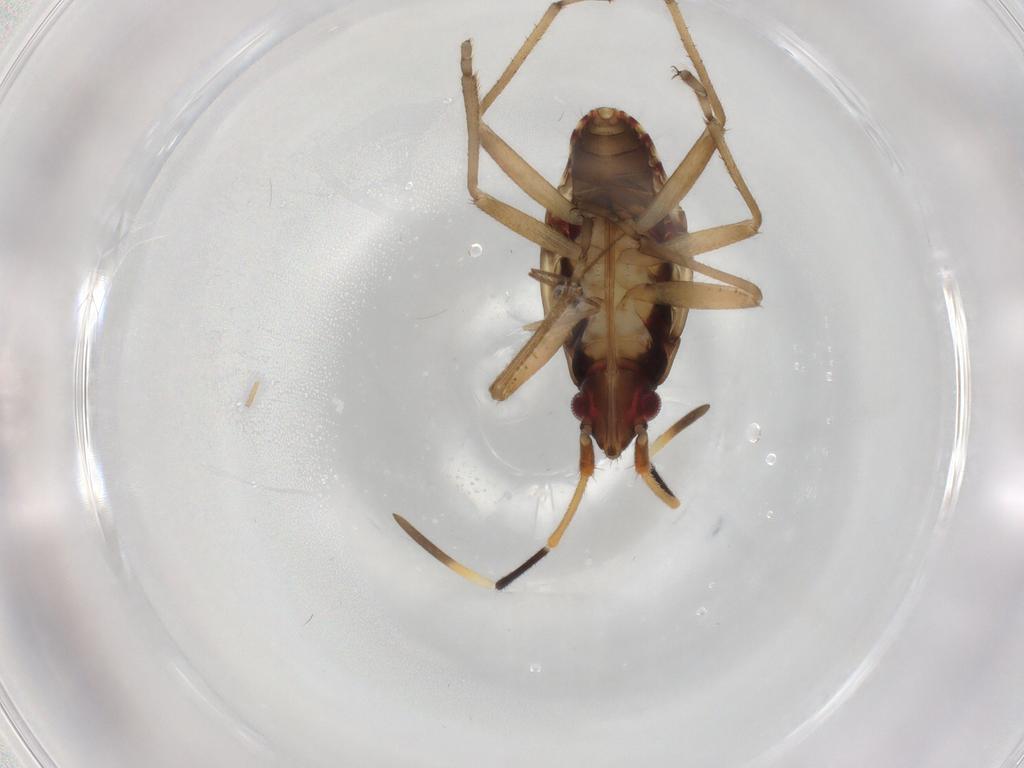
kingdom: Animalia
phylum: Arthropoda
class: Insecta
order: Hemiptera
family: Rhyparochromidae
